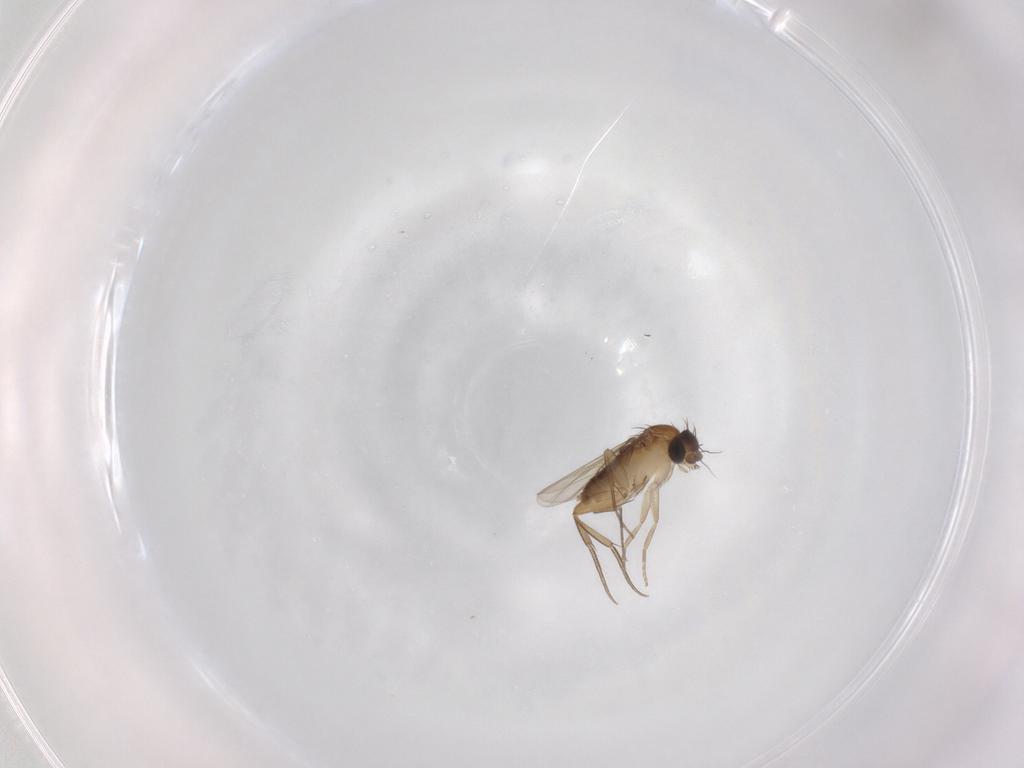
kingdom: Animalia
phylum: Arthropoda
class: Insecta
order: Diptera
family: Phoridae
